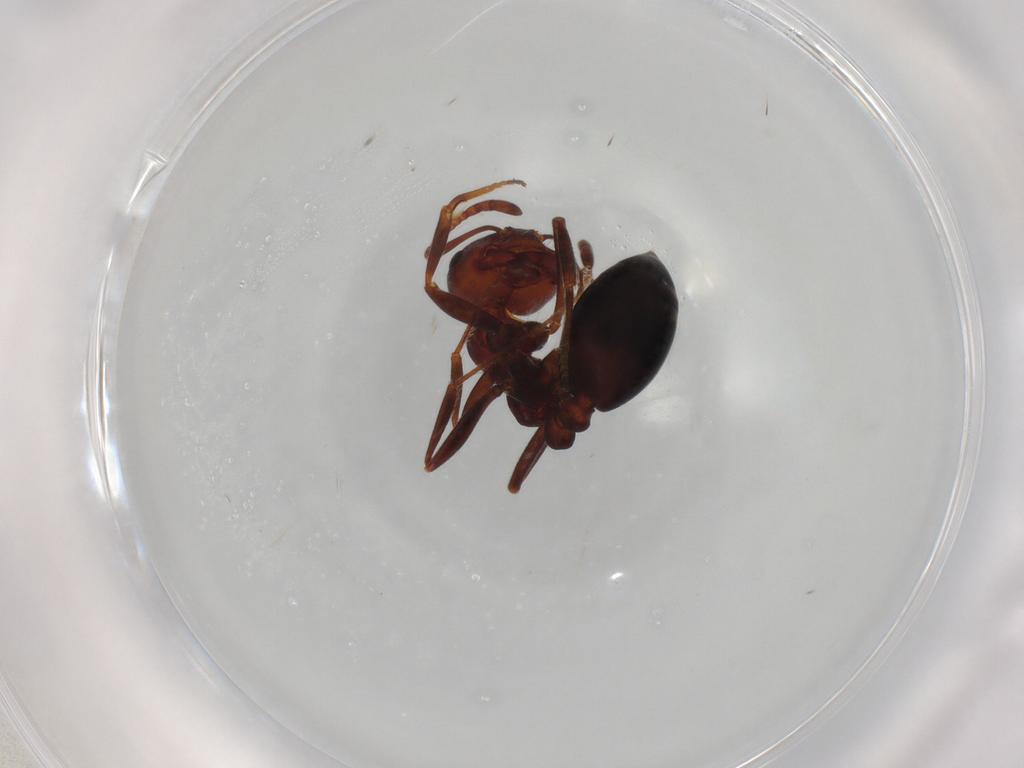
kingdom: Animalia
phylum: Arthropoda
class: Insecta
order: Hymenoptera
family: Formicidae
